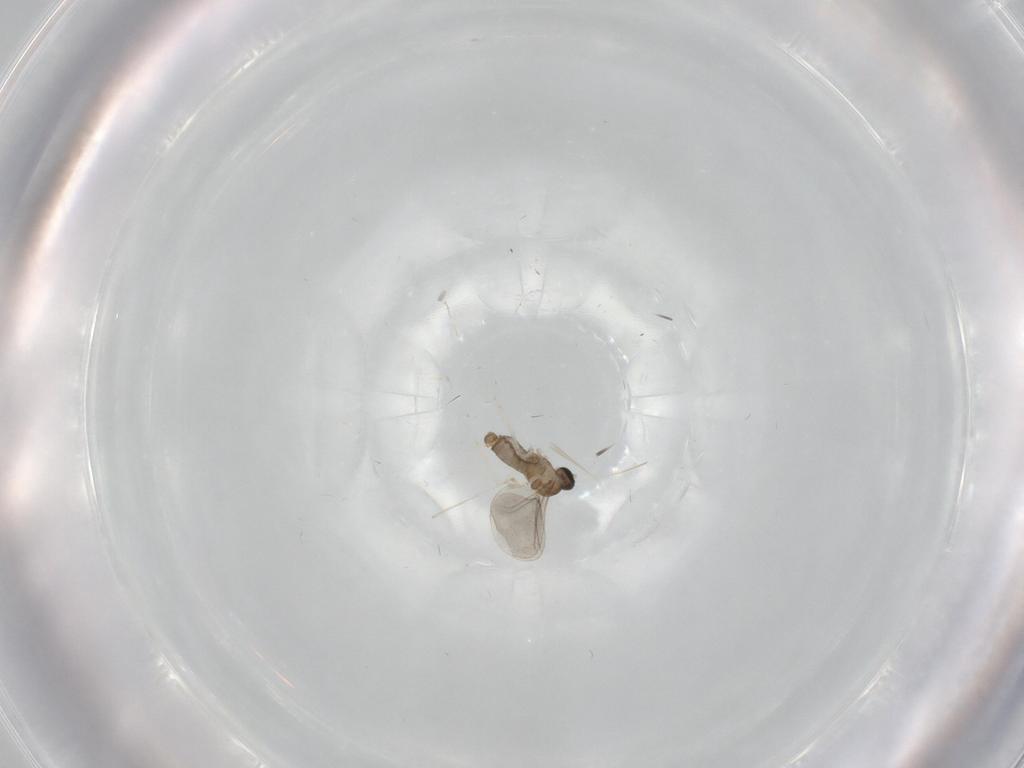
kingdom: Animalia
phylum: Arthropoda
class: Insecta
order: Diptera
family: Cecidomyiidae
